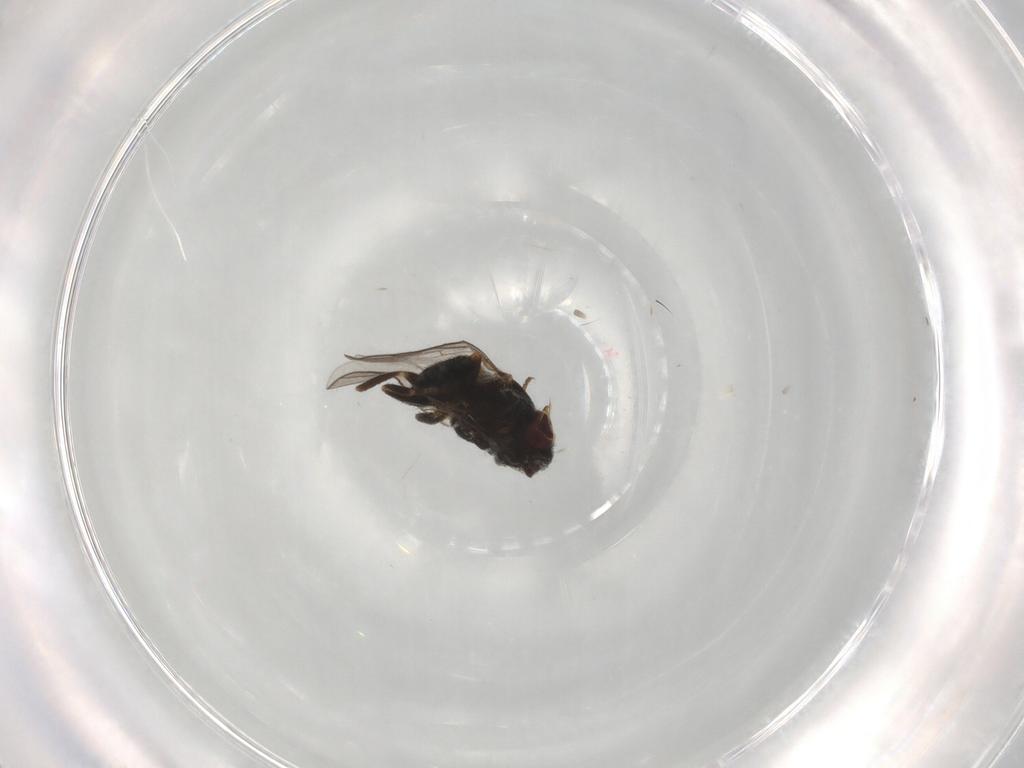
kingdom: Animalia
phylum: Arthropoda
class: Insecta
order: Diptera
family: Chloropidae
